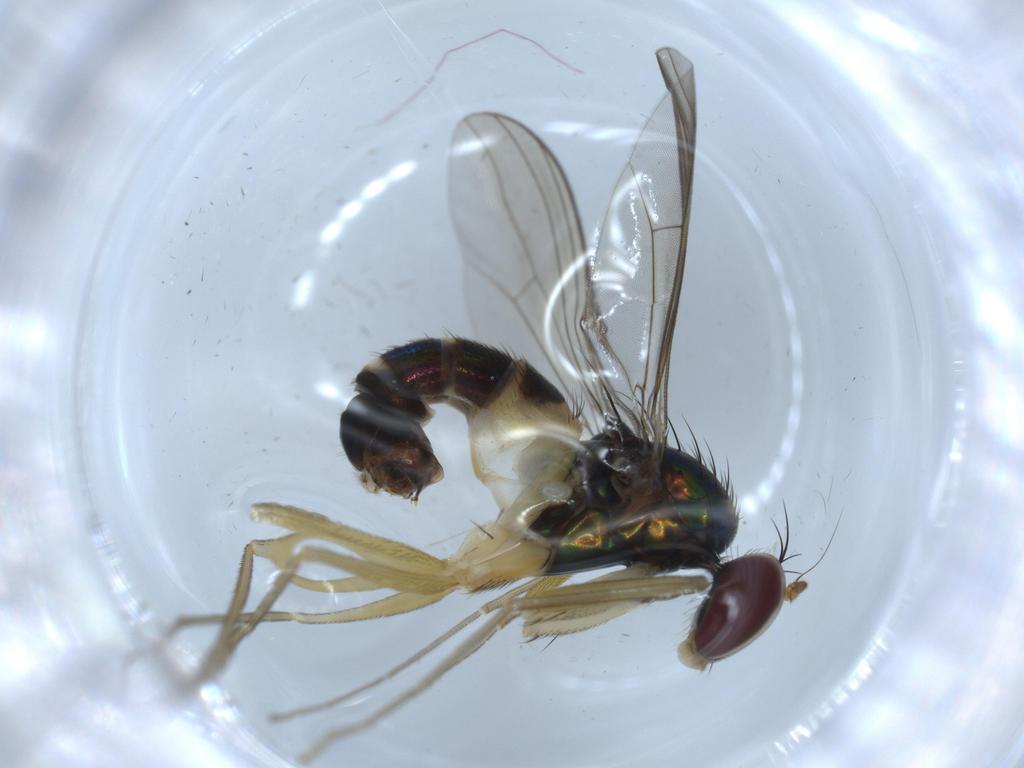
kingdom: Animalia
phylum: Arthropoda
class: Insecta
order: Diptera
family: Dolichopodidae
